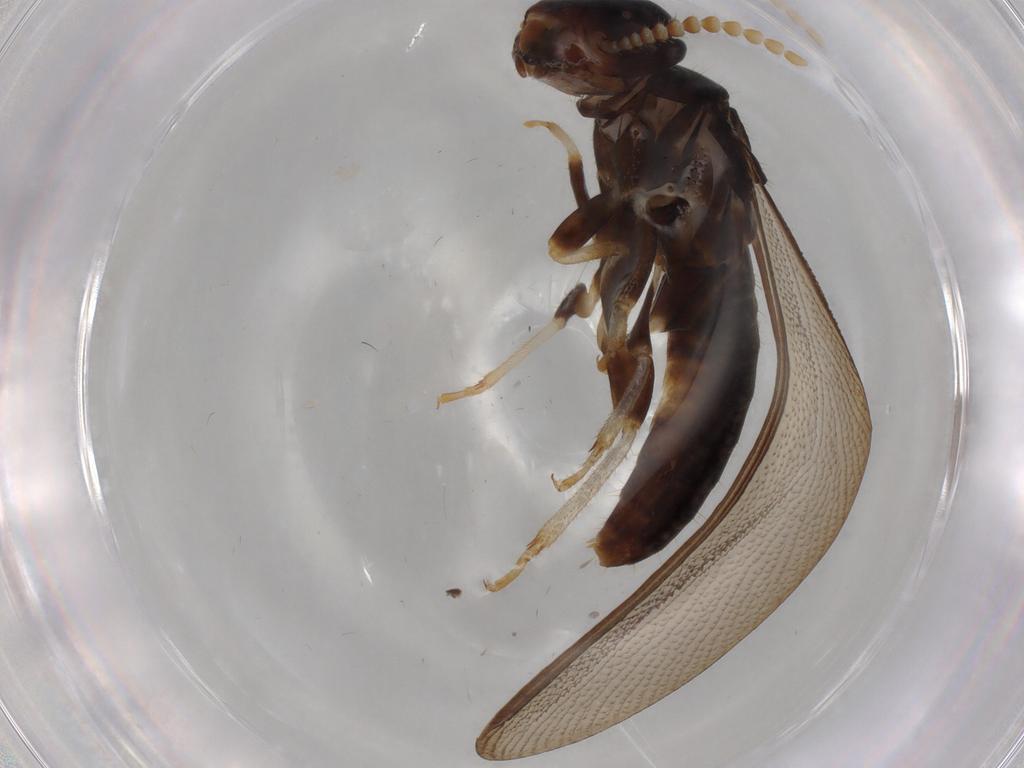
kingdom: Animalia
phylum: Arthropoda
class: Insecta
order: Blattodea
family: Kalotermitidae
